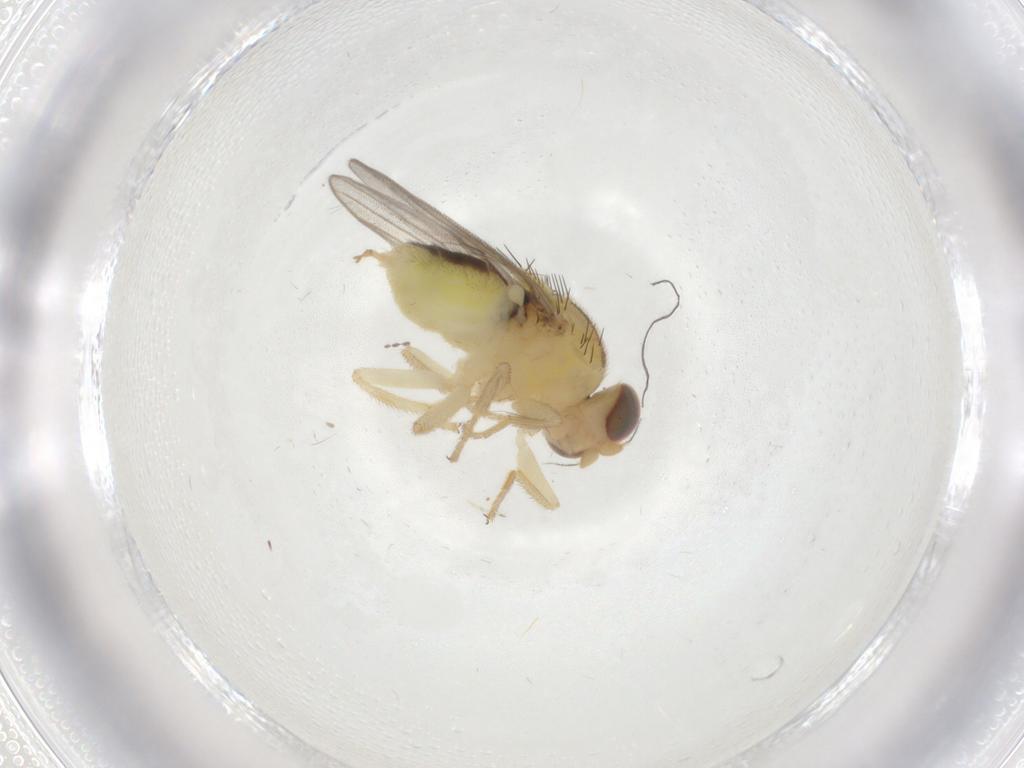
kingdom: Animalia
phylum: Arthropoda
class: Insecta
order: Diptera
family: Chloropidae
